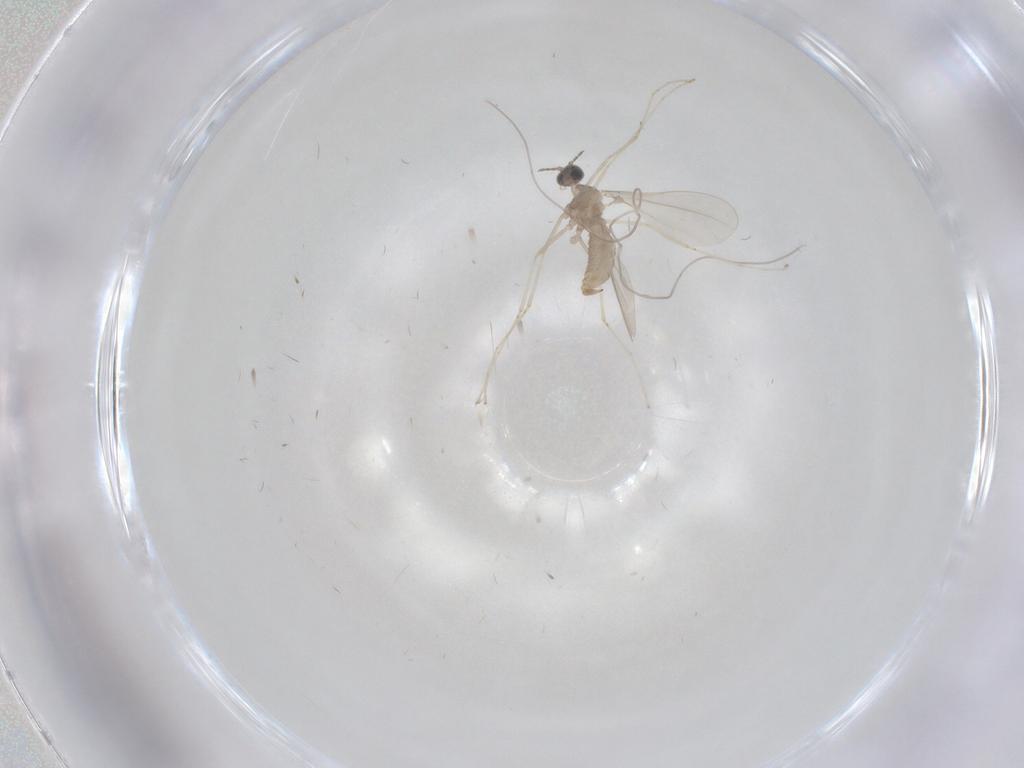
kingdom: Animalia
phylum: Arthropoda
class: Insecta
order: Diptera
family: Cecidomyiidae
